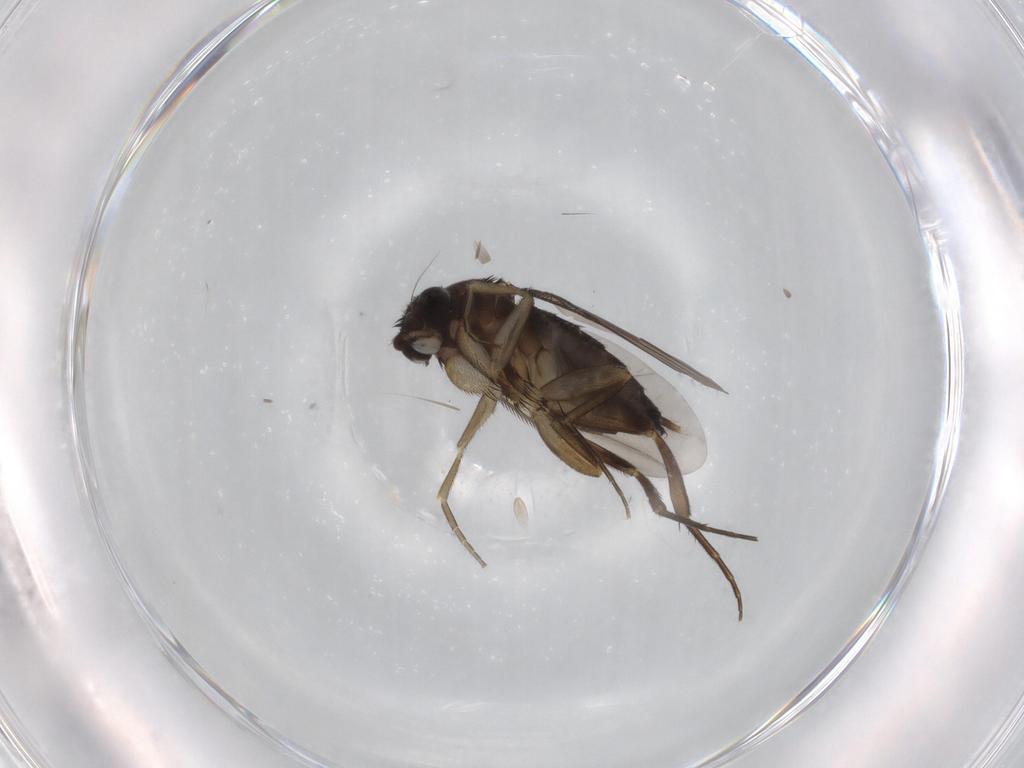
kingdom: Animalia
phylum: Arthropoda
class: Insecta
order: Diptera
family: Phoridae
